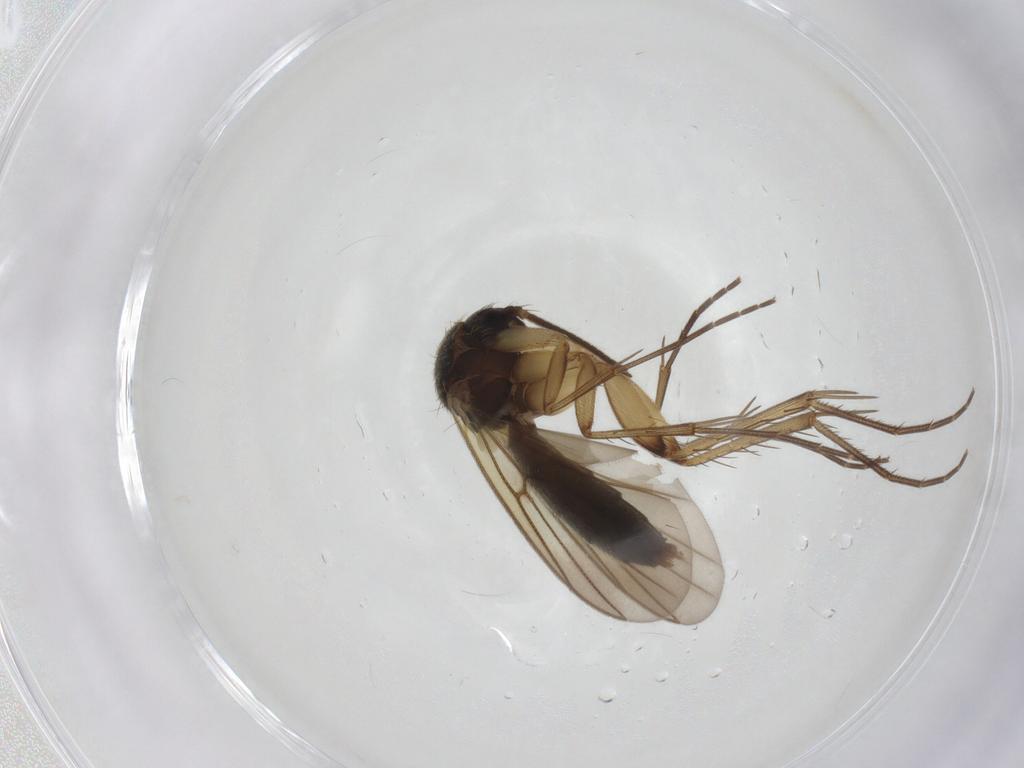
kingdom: Animalia
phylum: Arthropoda
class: Insecta
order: Diptera
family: Mycetophilidae
